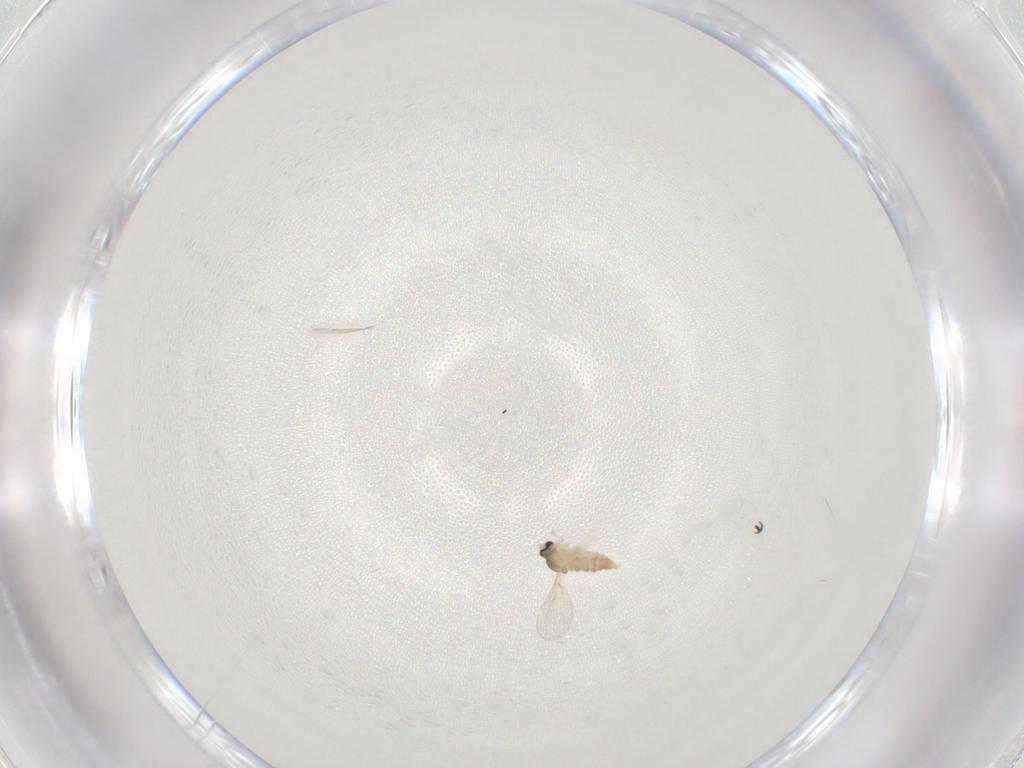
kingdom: Animalia
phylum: Arthropoda
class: Insecta
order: Diptera
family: Cecidomyiidae
